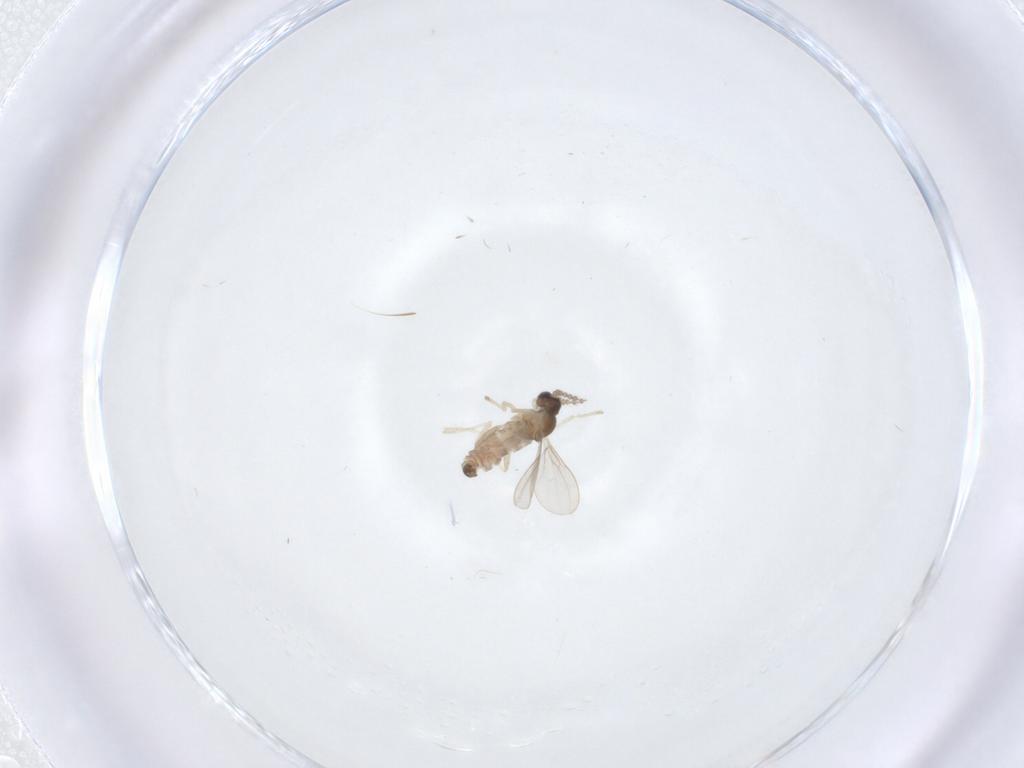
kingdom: Animalia
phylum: Arthropoda
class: Insecta
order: Diptera
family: Cecidomyiidae
